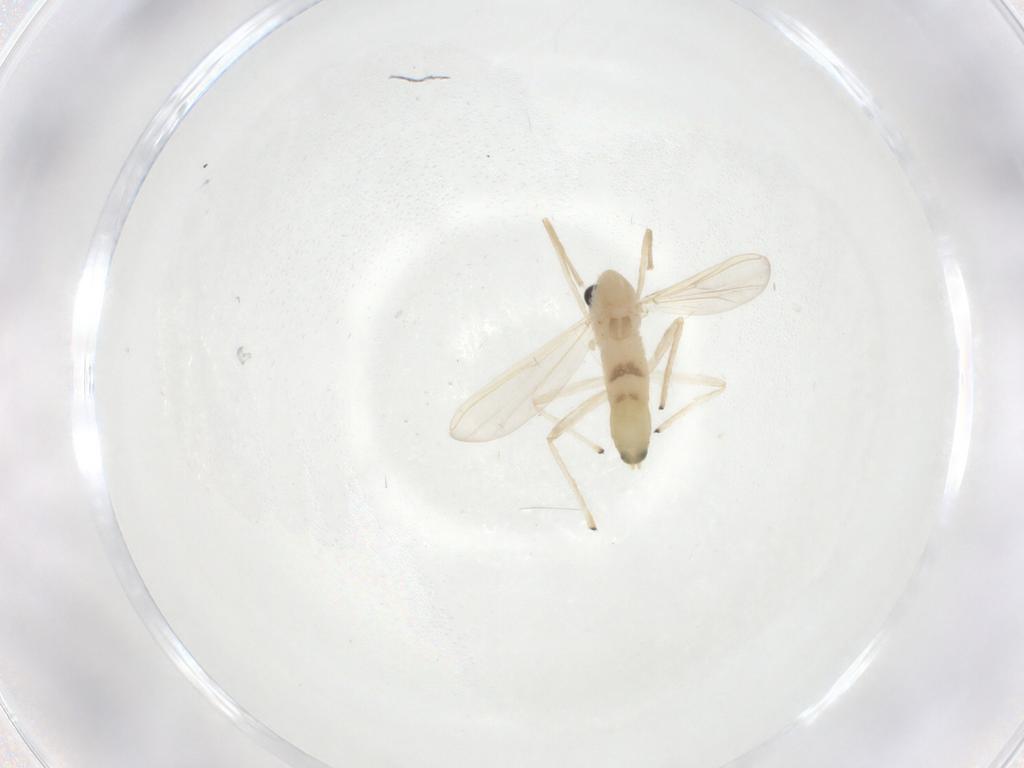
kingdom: Animalia
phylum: Arthropoda
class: Insecta
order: Diptera
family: Chironomidae
